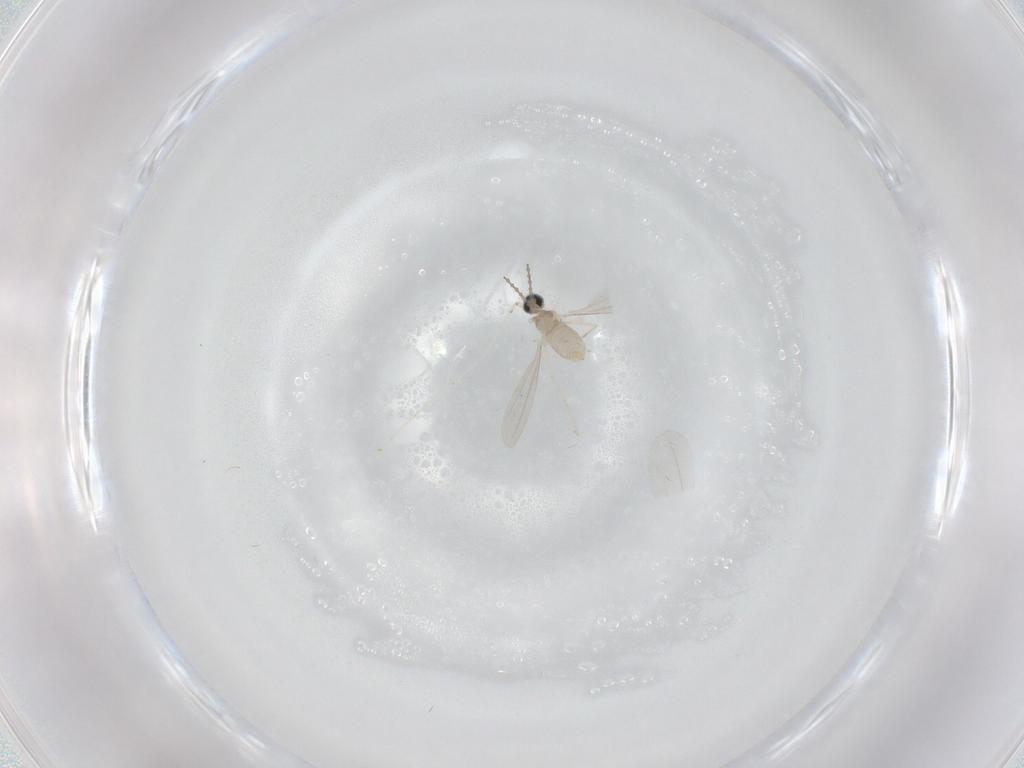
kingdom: Animalia
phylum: Arthropoda
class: Insecta
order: Diptera
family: Cecidomyiidae
